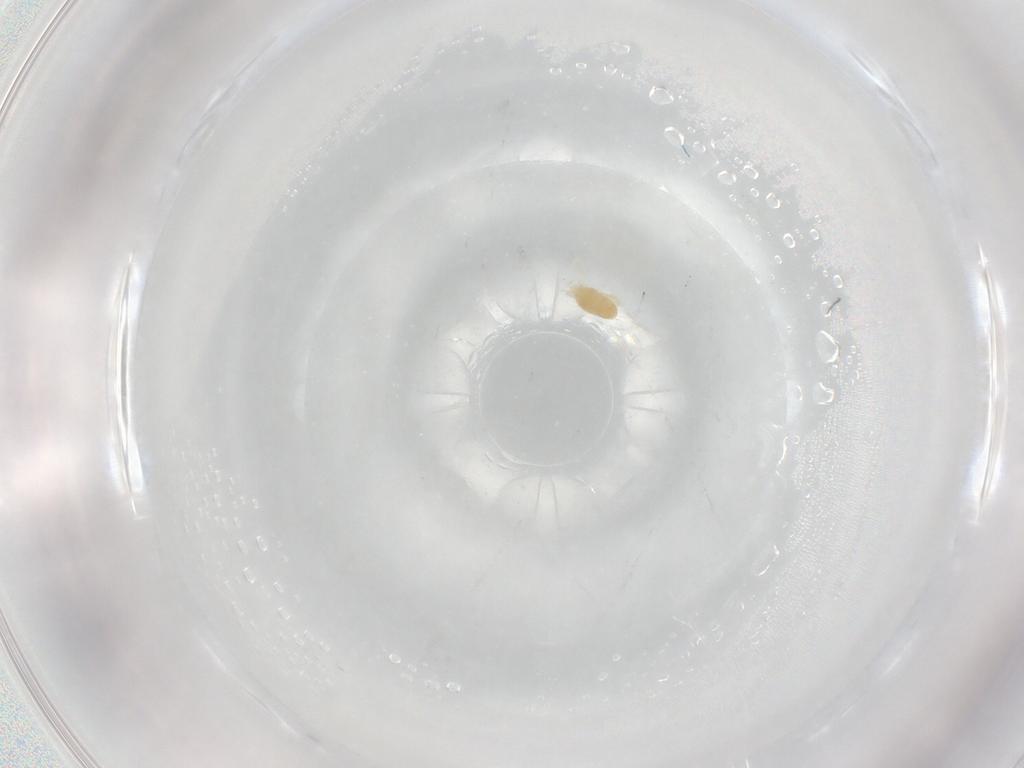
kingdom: Animalia
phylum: Arthropoda
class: Arachnida
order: Trombidiformes
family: Eupodidae
